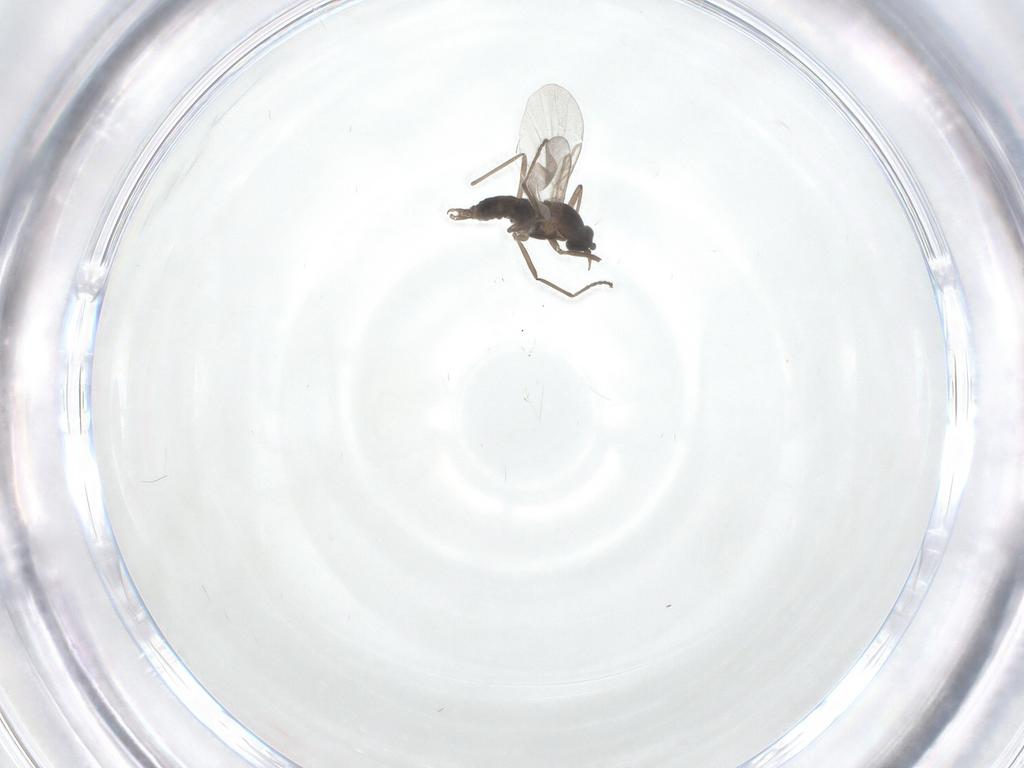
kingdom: Animalia
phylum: Arthropoda
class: Insecta
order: Diptera
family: Cecidomyiidae
